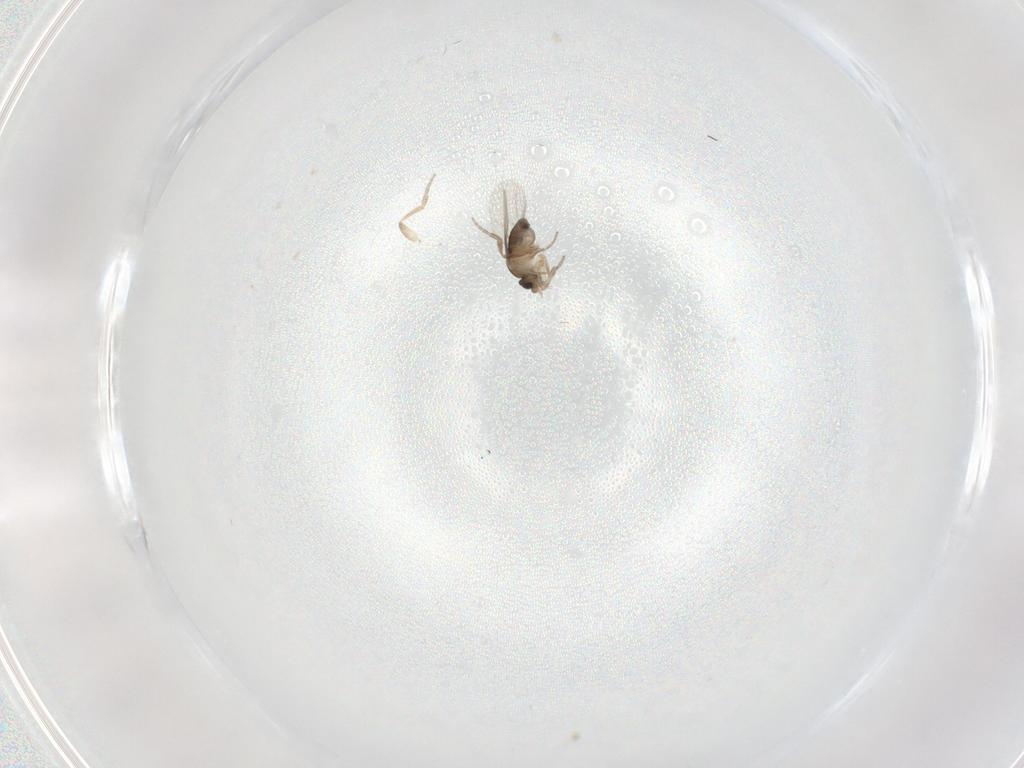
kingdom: Animalia
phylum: Arthropoda
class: Insecta
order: Diptera
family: Phoridae
